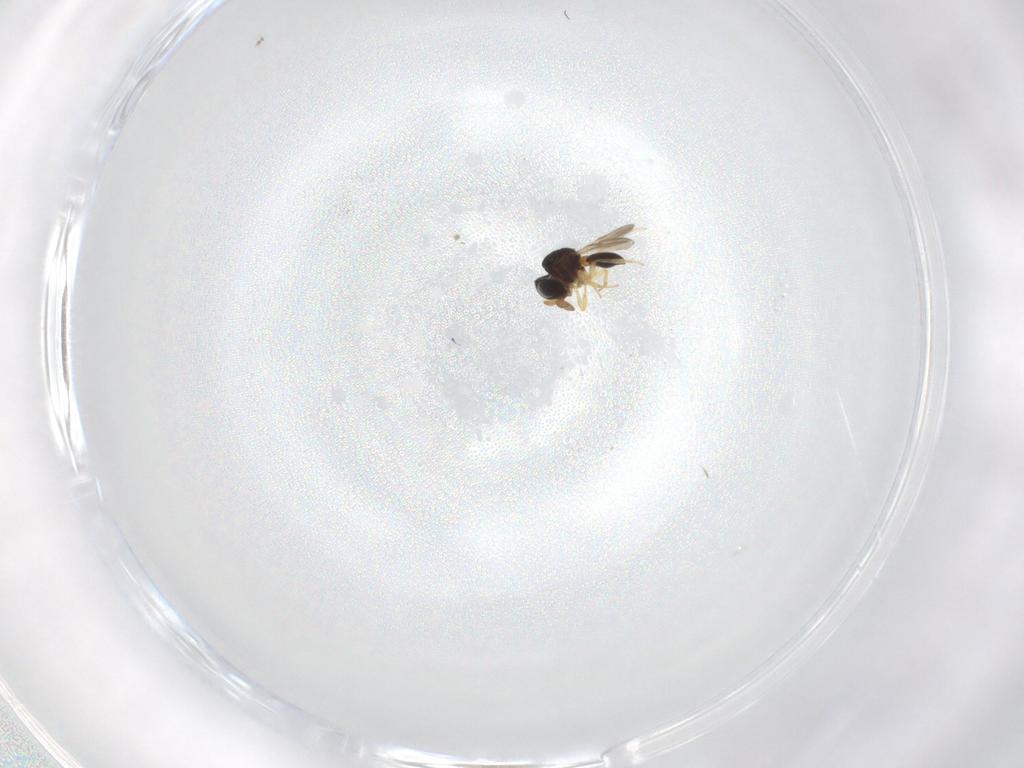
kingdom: Animalia
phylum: Arthropoda
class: Insecta
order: Hymenoptera
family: Scelionidae
